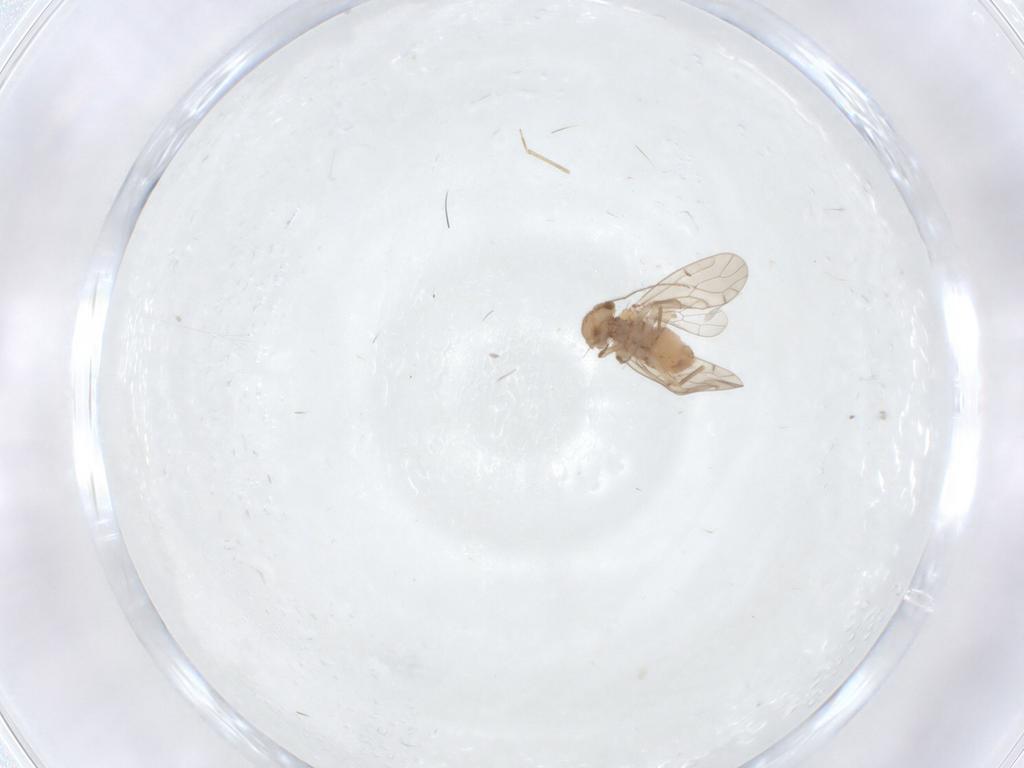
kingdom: Animalia
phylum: Arthropoda
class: Insecta
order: Psocodea
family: Ectopsocidae
